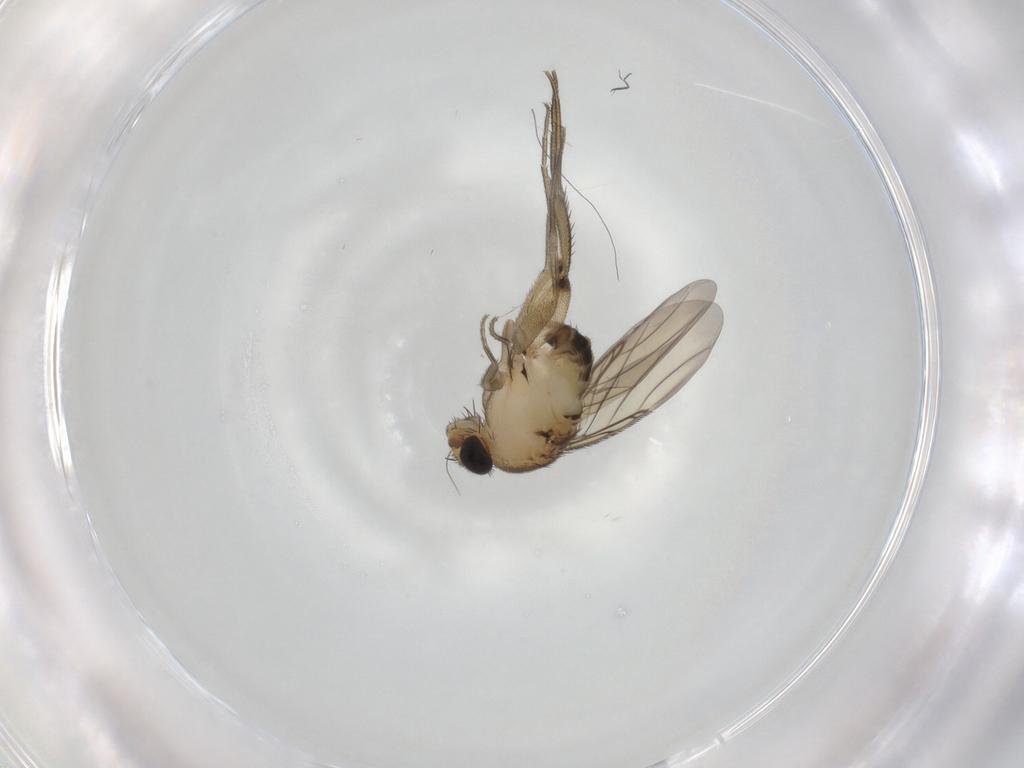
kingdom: Animalia
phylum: Arthropoda
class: Insecta
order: Diptera
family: Phoridae
